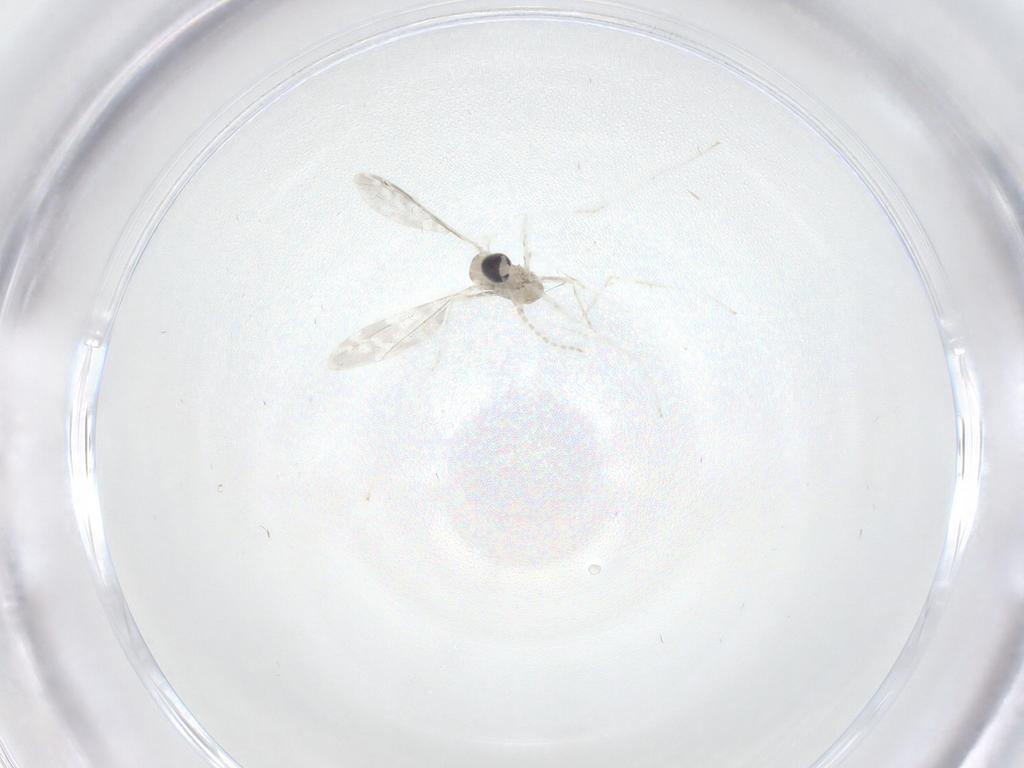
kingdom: Animalia
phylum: Arthropoda
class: Insecta
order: Diptera
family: Cecidomyiidae
